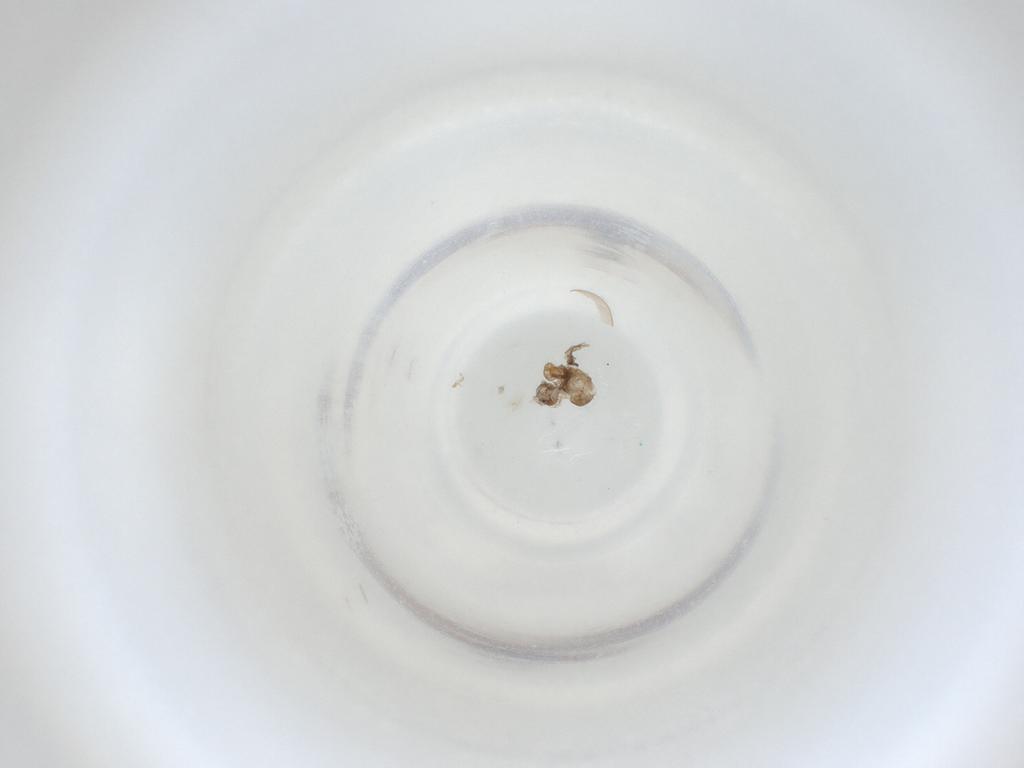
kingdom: Animalia
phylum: Arthropoda
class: Insecta
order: Diptera
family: Cecidomyiidae
